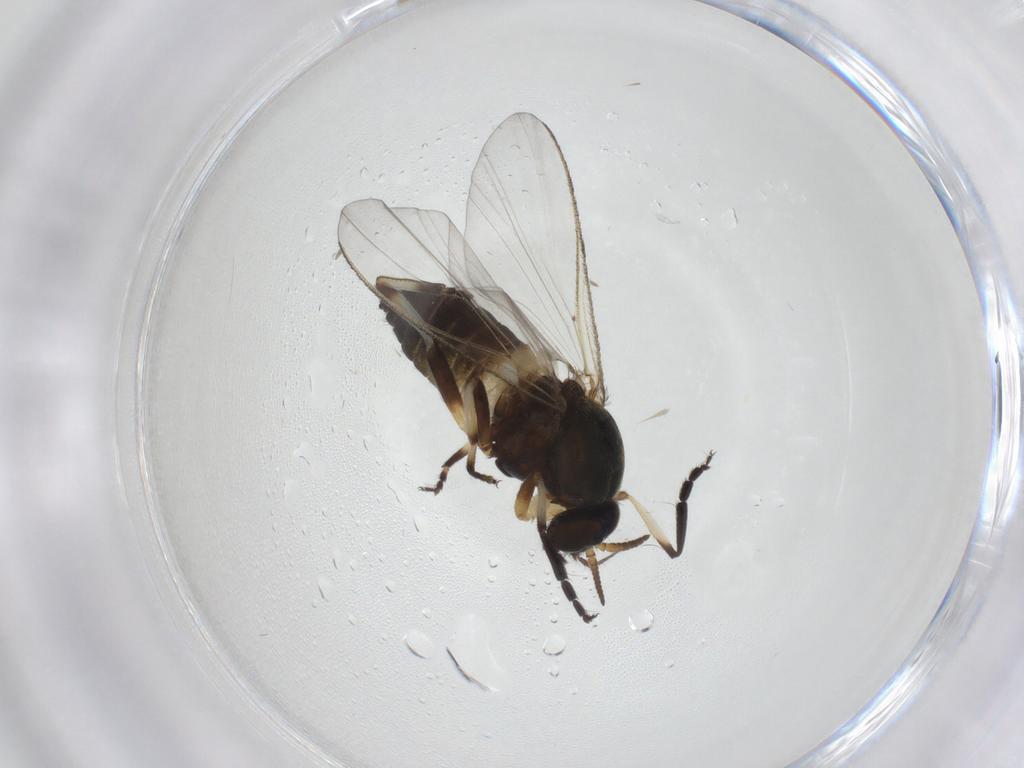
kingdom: Animalia
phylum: Arthropoda
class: Insecta
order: Diptera
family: Simuliidae
